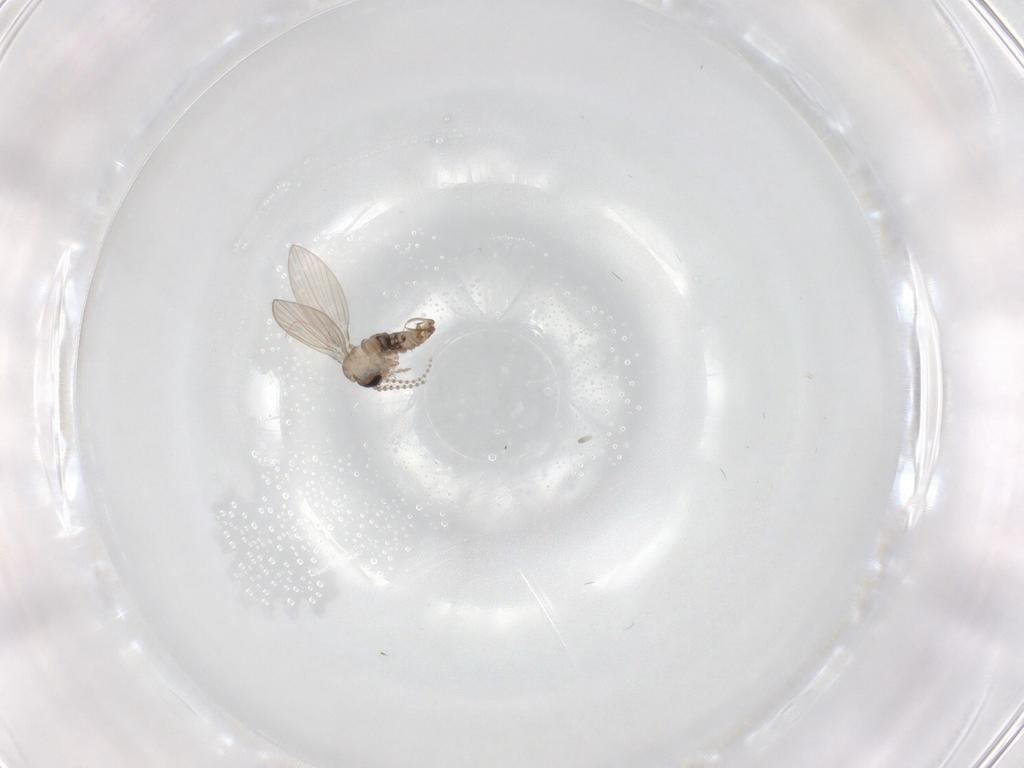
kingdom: Animalia
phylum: Arthropoda
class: Insecta
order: Diptera
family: Psychodidae
